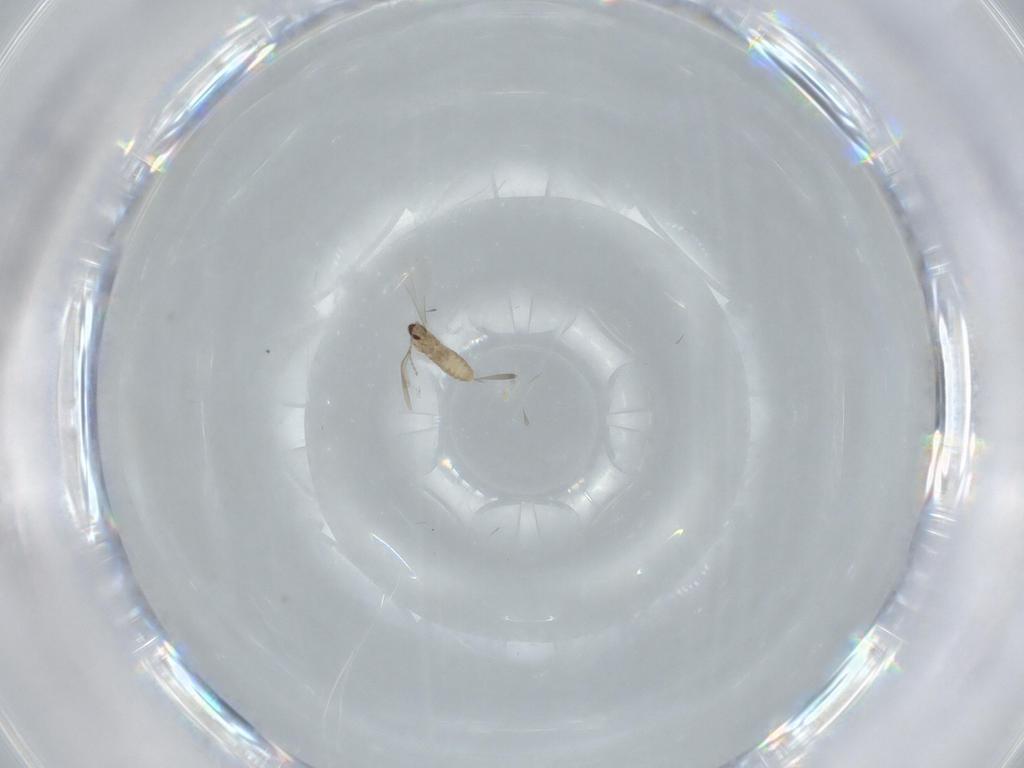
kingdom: Animalia
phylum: Arthropoda
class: Insecta
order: Diptera
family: Cecidomyiidae
